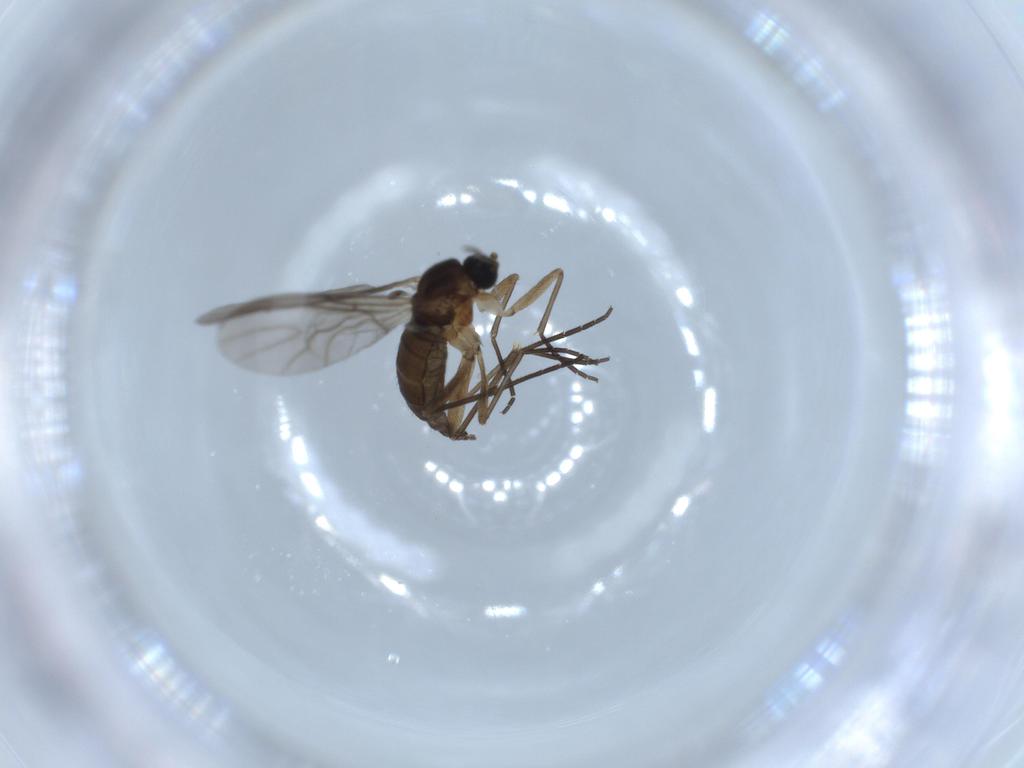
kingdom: Animalia
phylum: Arthropoda
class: Insecta
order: Diptera
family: Sciaridae
